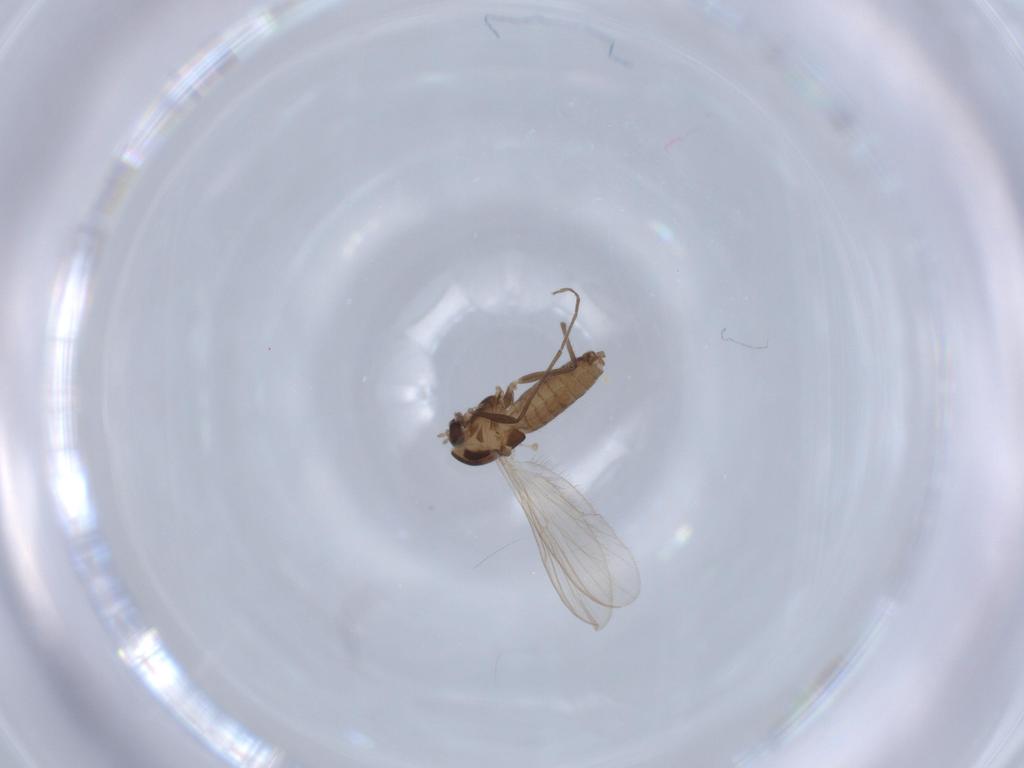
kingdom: Animalia
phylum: Arthropoda
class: Insecta
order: Diptera
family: Chironomidae
